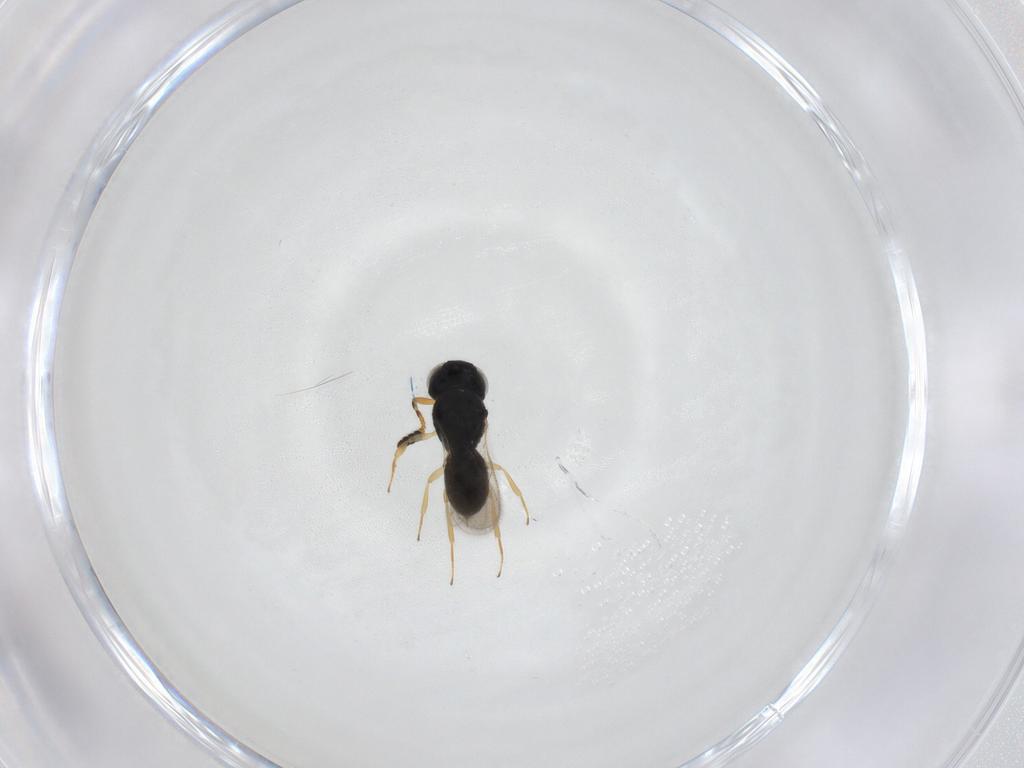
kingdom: Animalia
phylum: Arthropoda
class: Insecta
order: Hymenoptera
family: Scelionidae
